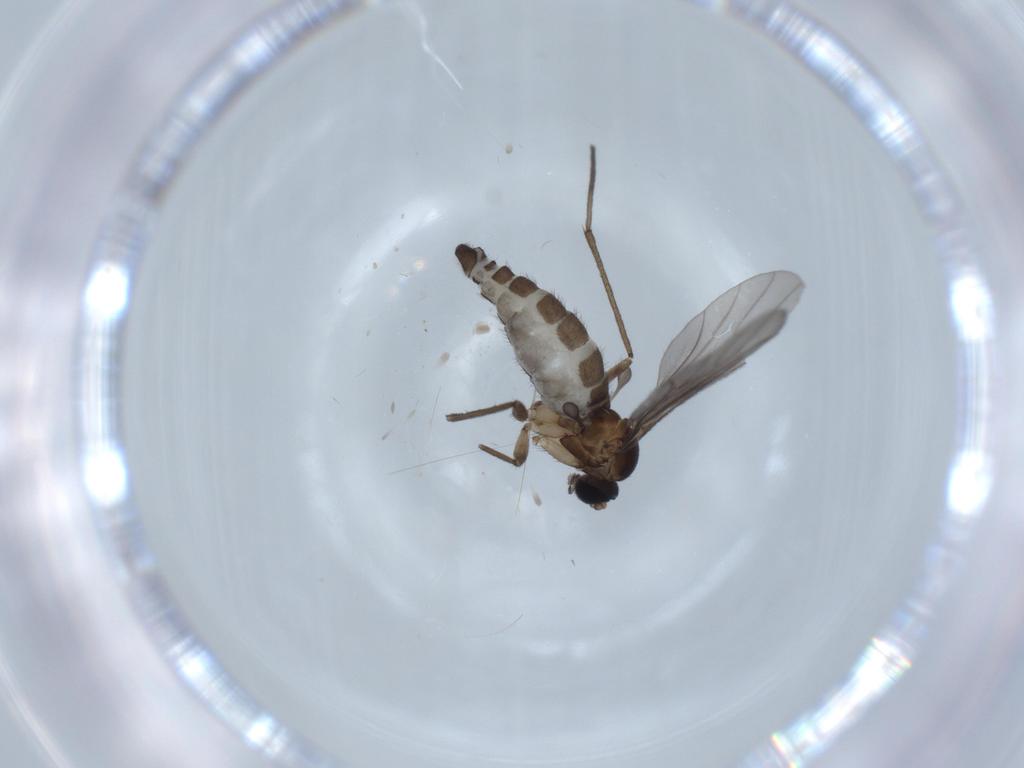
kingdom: Animalia
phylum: Arthropoda
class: Insecta
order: Diptera
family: Sciaridae
